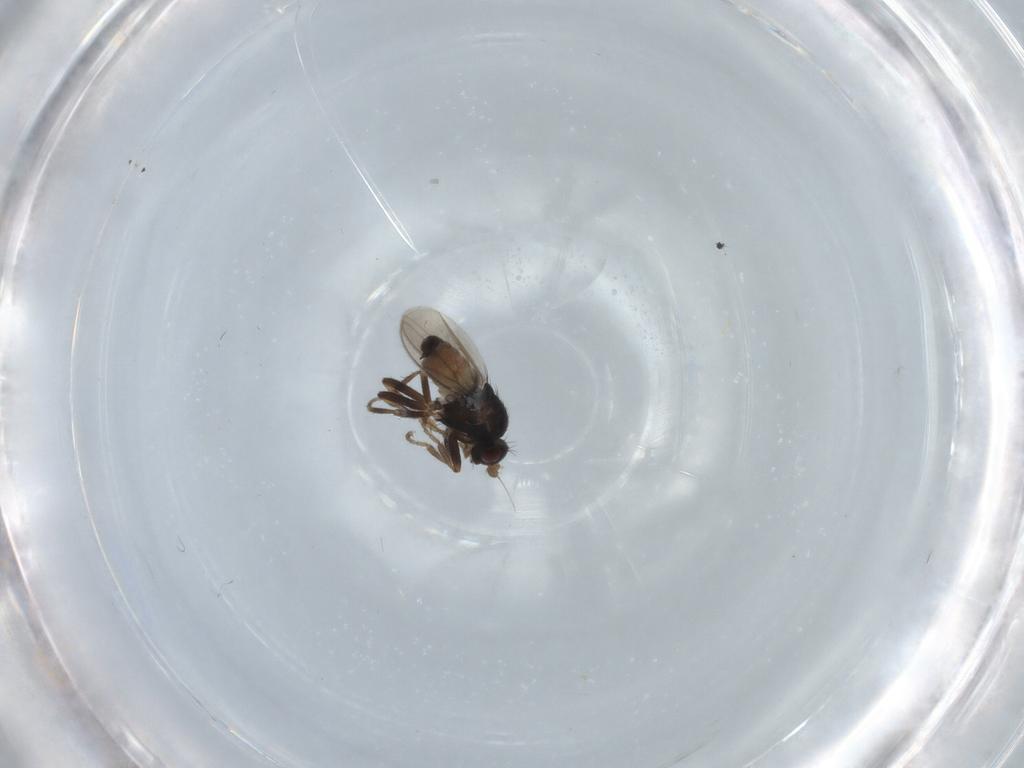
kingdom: Animalia
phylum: Arthropoda
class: Insecta
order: Diptera
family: Sphaeroceridae
